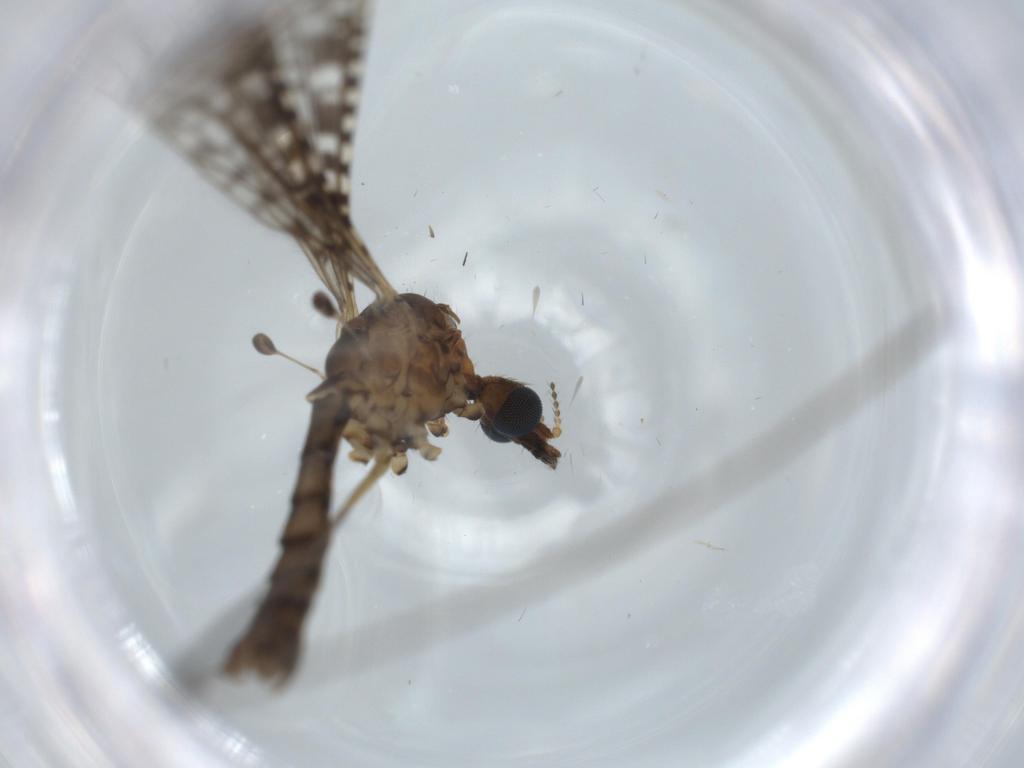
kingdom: Animalia
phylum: Arthropoda
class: Insecta
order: Diptera
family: Limoniidae
